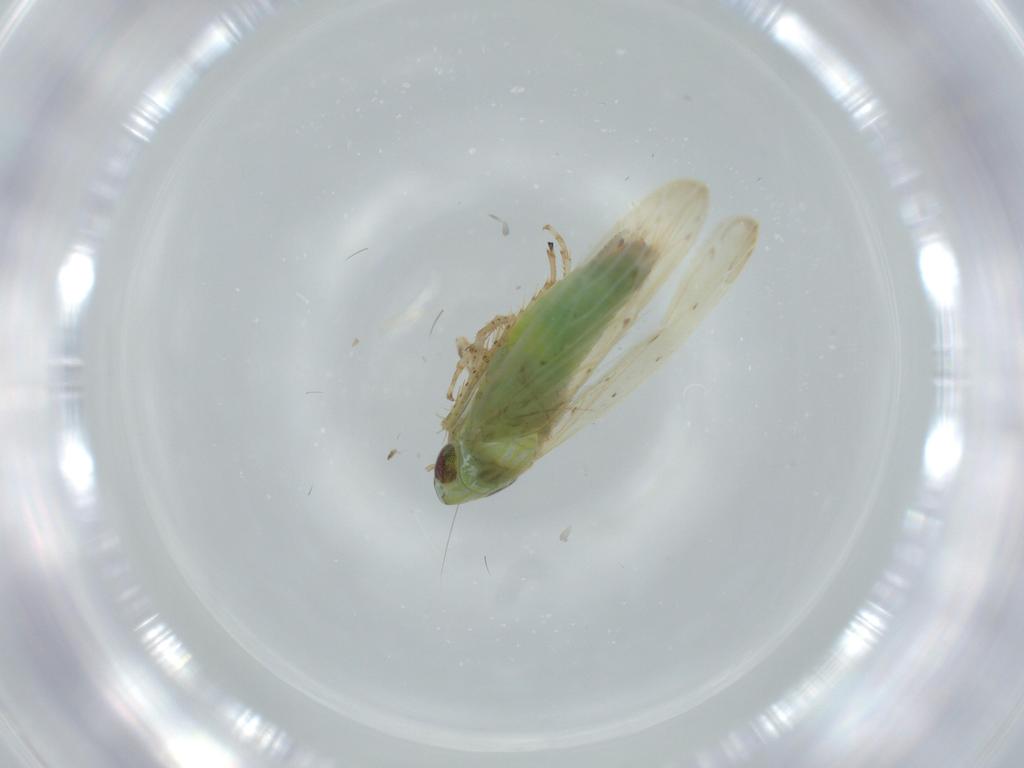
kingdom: Animalia
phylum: Arthropoda
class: Insecta
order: Hemiptera
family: Cicadellidae
